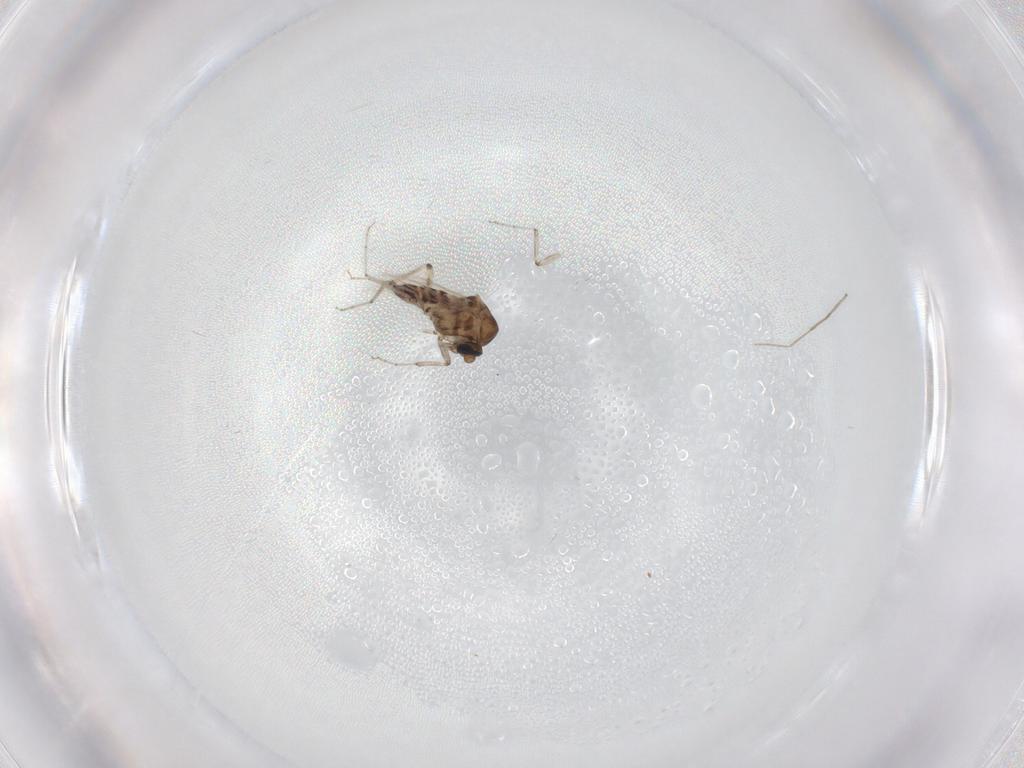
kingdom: Animalia
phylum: Arthropoda
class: Insecta
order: Diptera
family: Ceratopogonidae
